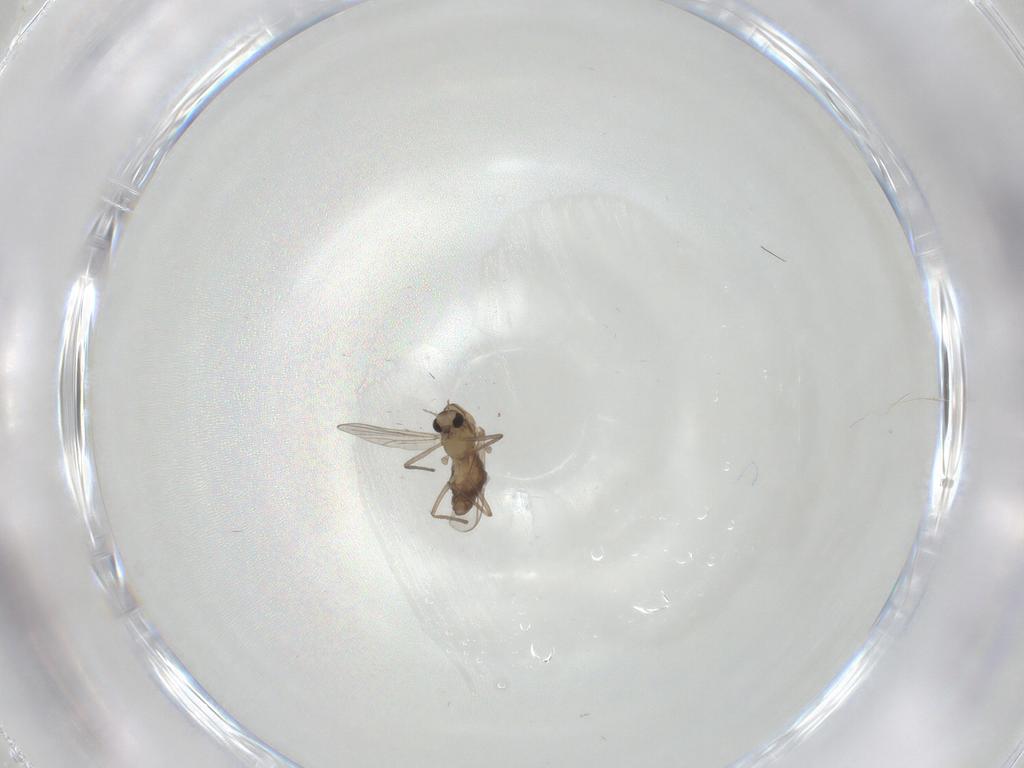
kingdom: Animalia
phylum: Arthropoda
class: Insecta
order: Diptera
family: Chironomidae
